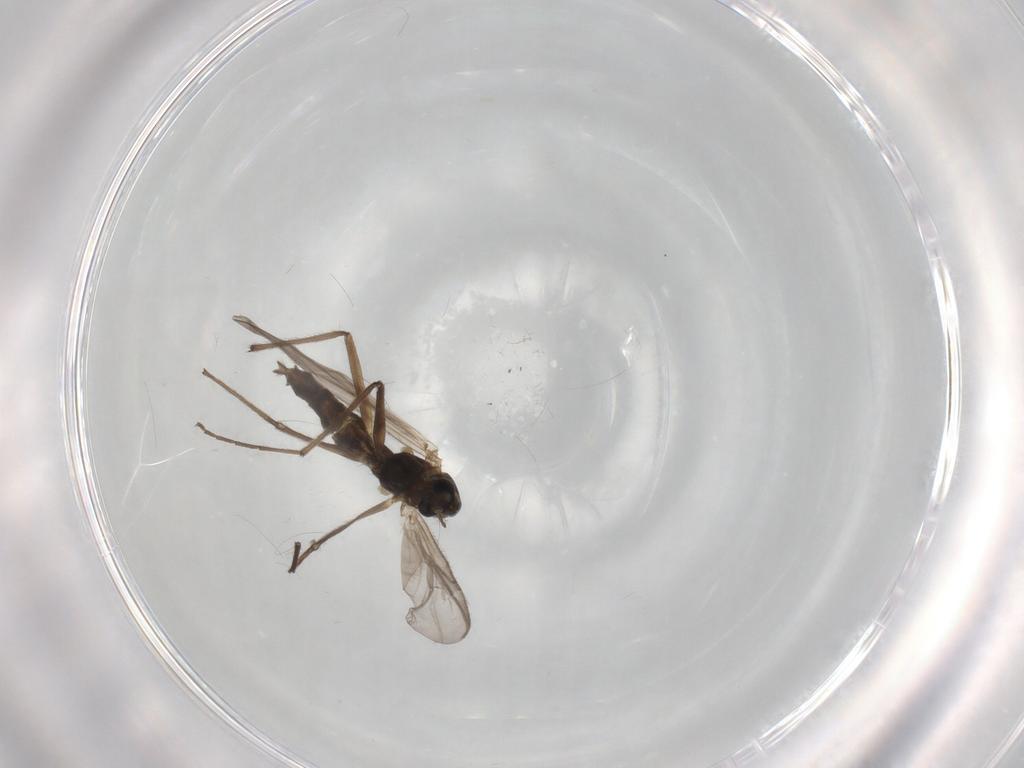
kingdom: Animalia
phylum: Arthropoda
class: Insecta
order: Diptera
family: Chironomidae
